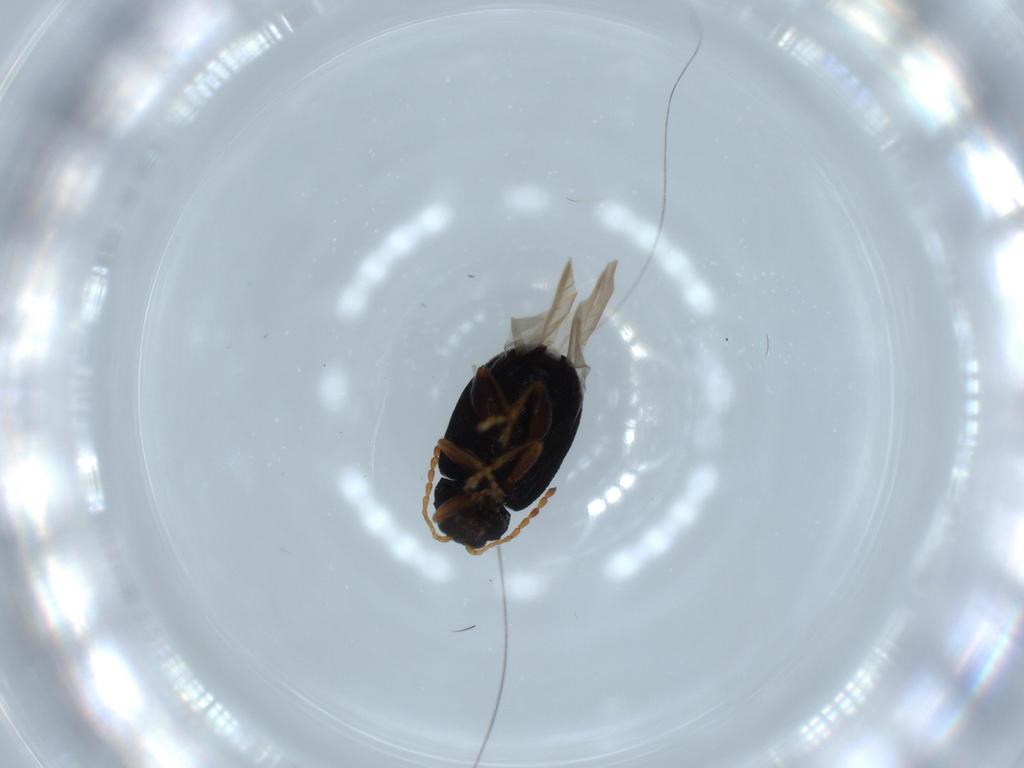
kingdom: Animalia
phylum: Arthropoda
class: Insecta
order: Coleoptera
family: Chrysomelidae
